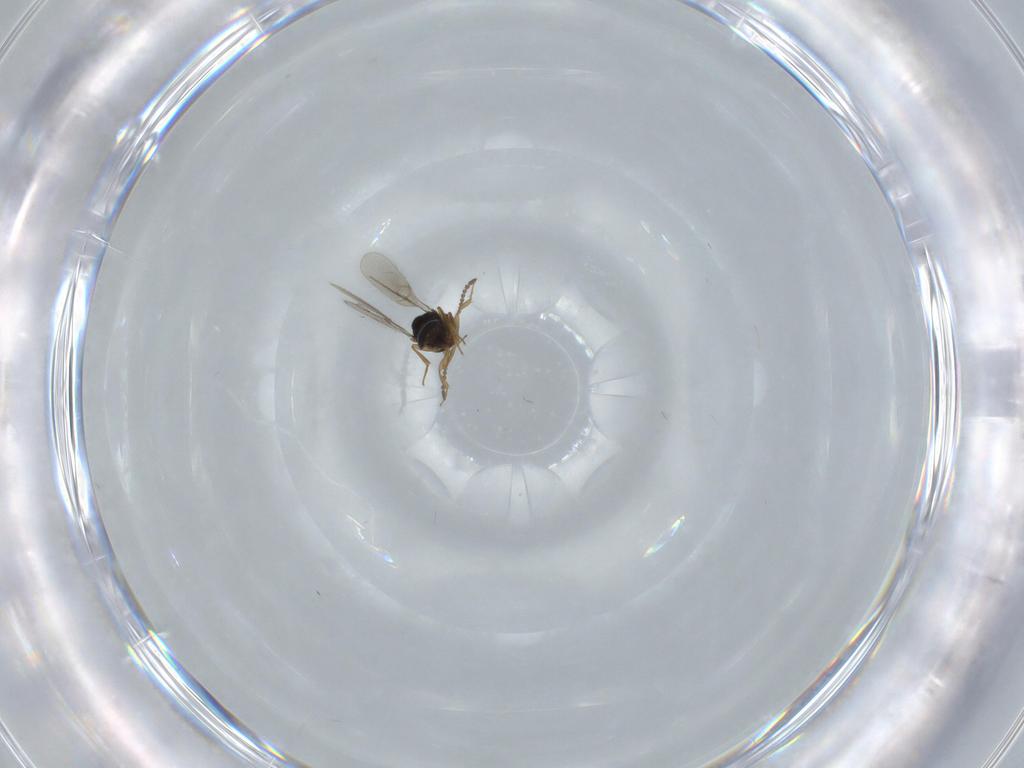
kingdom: Animalia
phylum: Arthropoda
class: Insecta
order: Hymenoptera
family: Scelionidae
